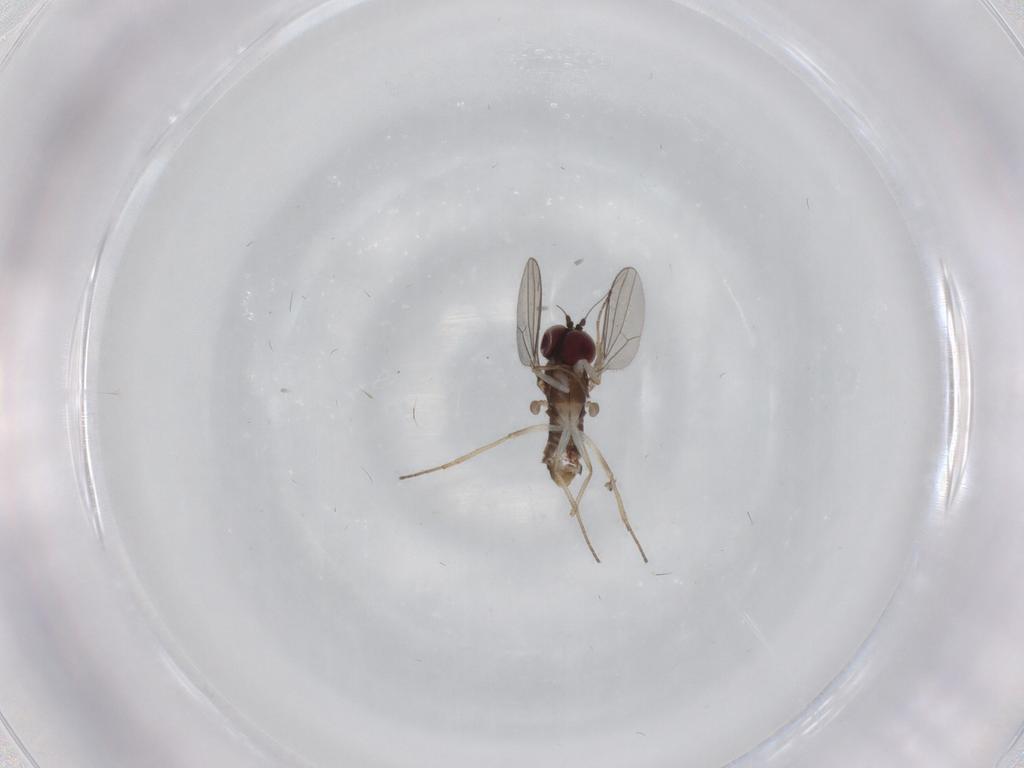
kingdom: Animalia
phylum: Arthropoda
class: Insecta
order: Diptera
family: Dolichopodidae
